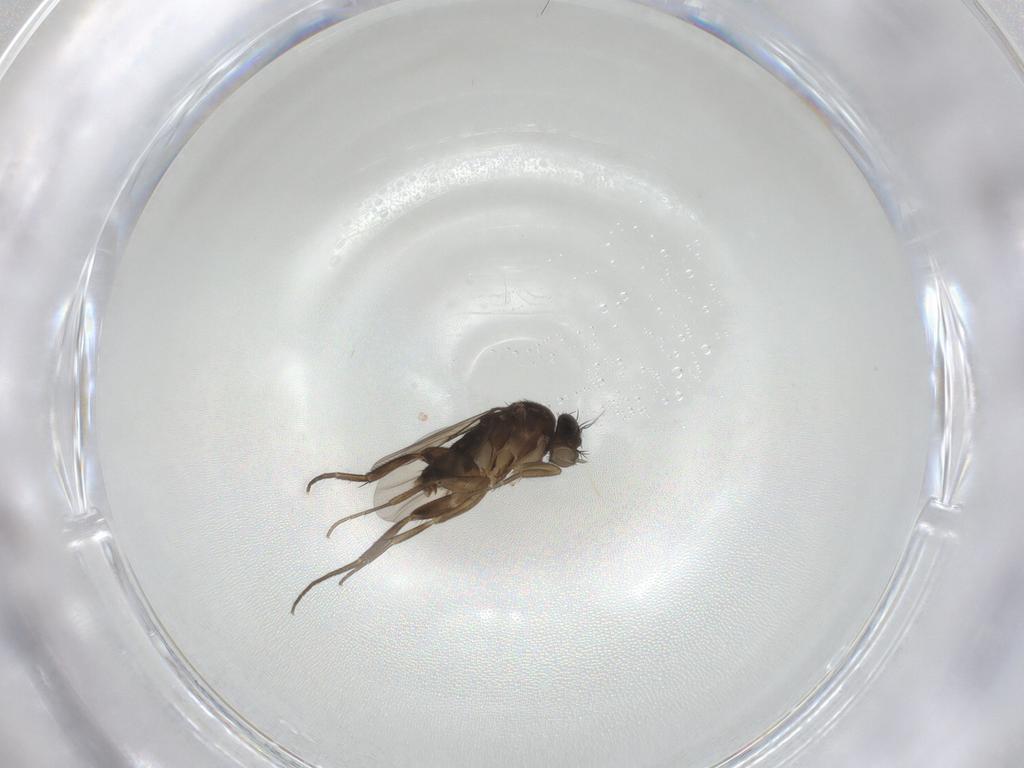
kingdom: Animalia
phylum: Arthropoda
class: Insecta
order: Diptera
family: Phoridae
